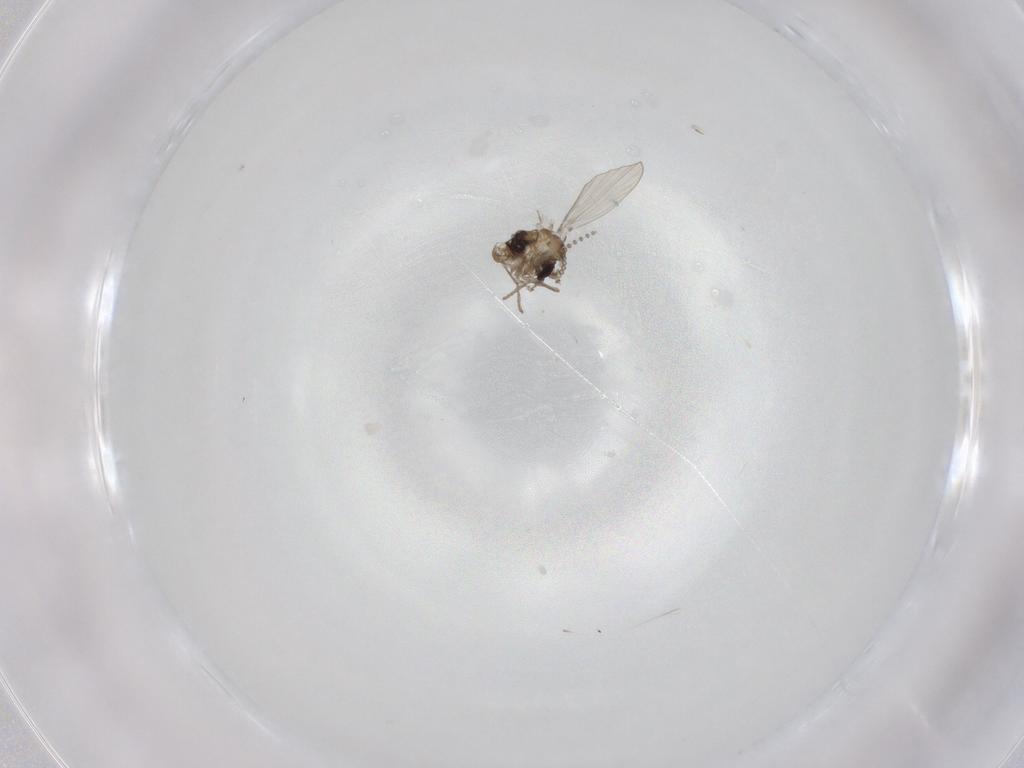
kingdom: Animalia
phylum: Arthropoda
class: Insecta
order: Diptera
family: Psychodidae
